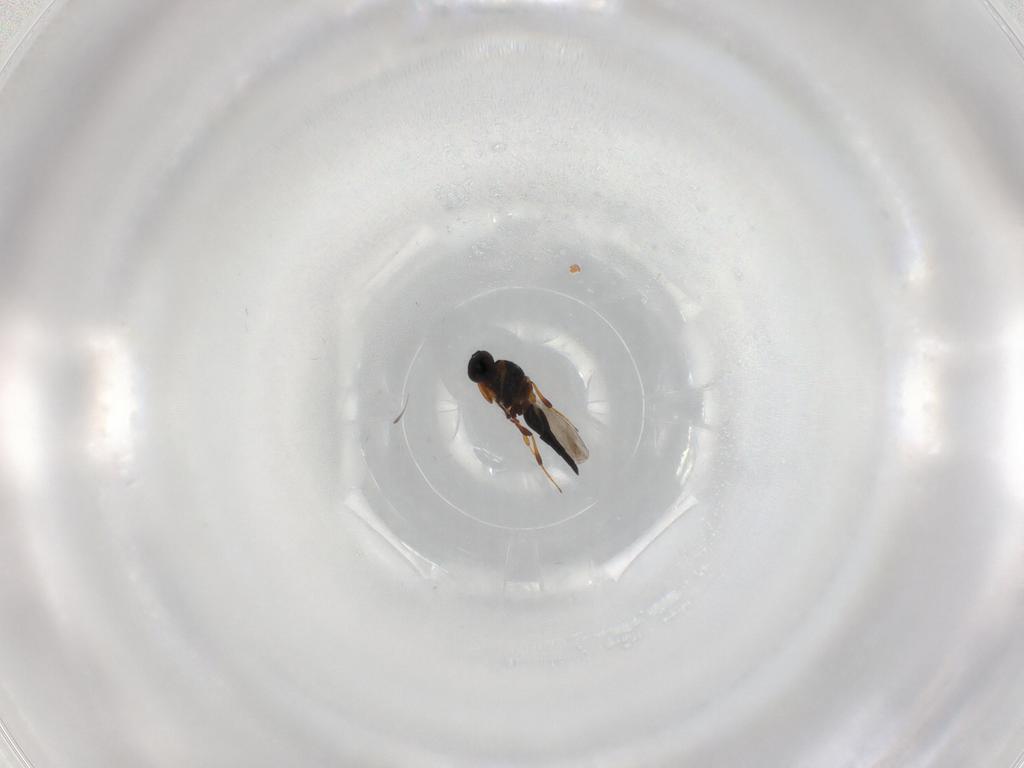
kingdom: Animalia
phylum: Arthropoda
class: Insecta
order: Hymenoptera
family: Platygastridae
